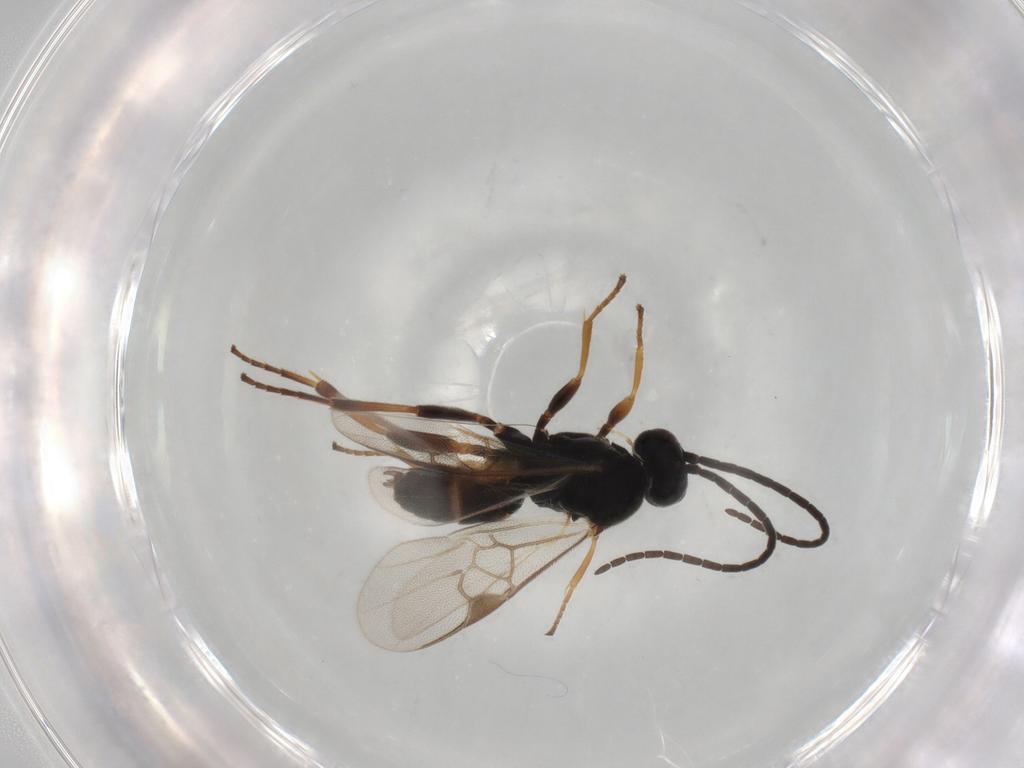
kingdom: Animalia
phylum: Arthropoda
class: Insecta
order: Hymenoptera
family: Braconidae
